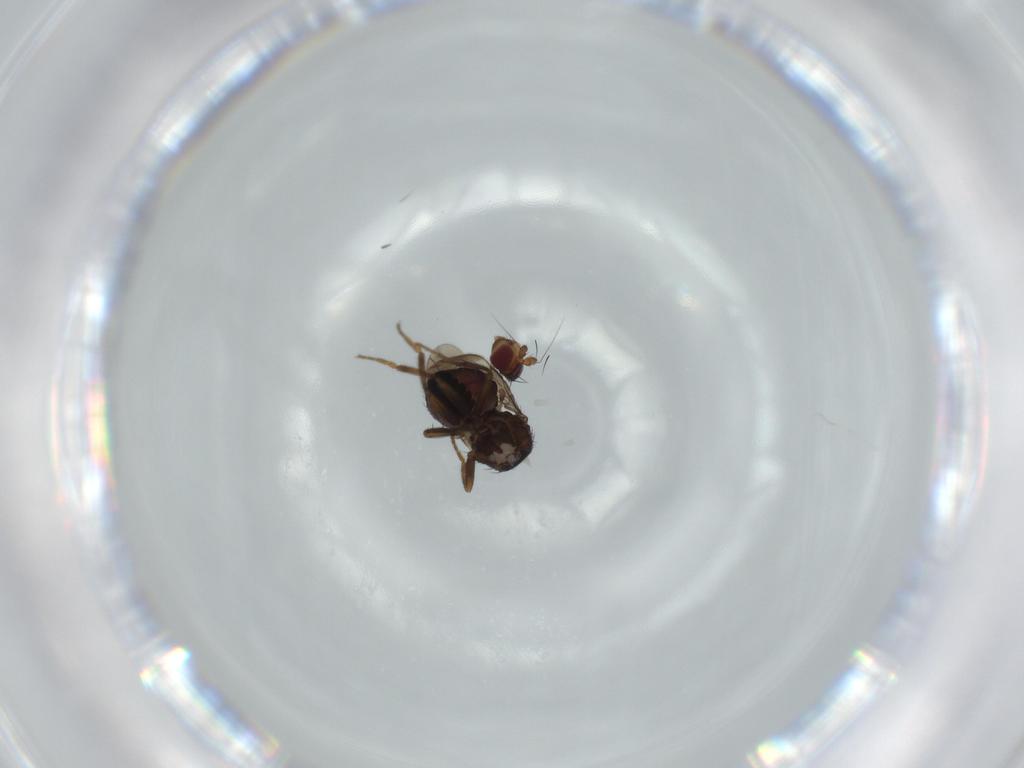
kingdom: Animalia
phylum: Arthropoda
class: Insecta
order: Diptera
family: Sphaeroceridae
